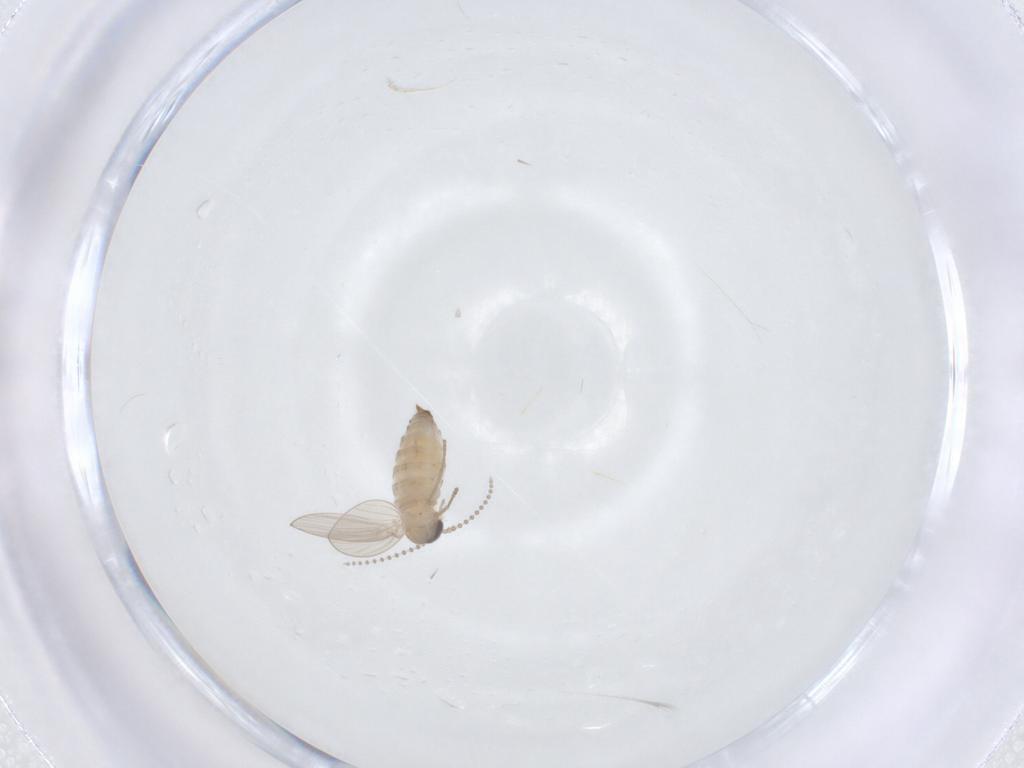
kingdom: Animalia
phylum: Arthropoda
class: Insecta
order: Diptera
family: Psychodidae
